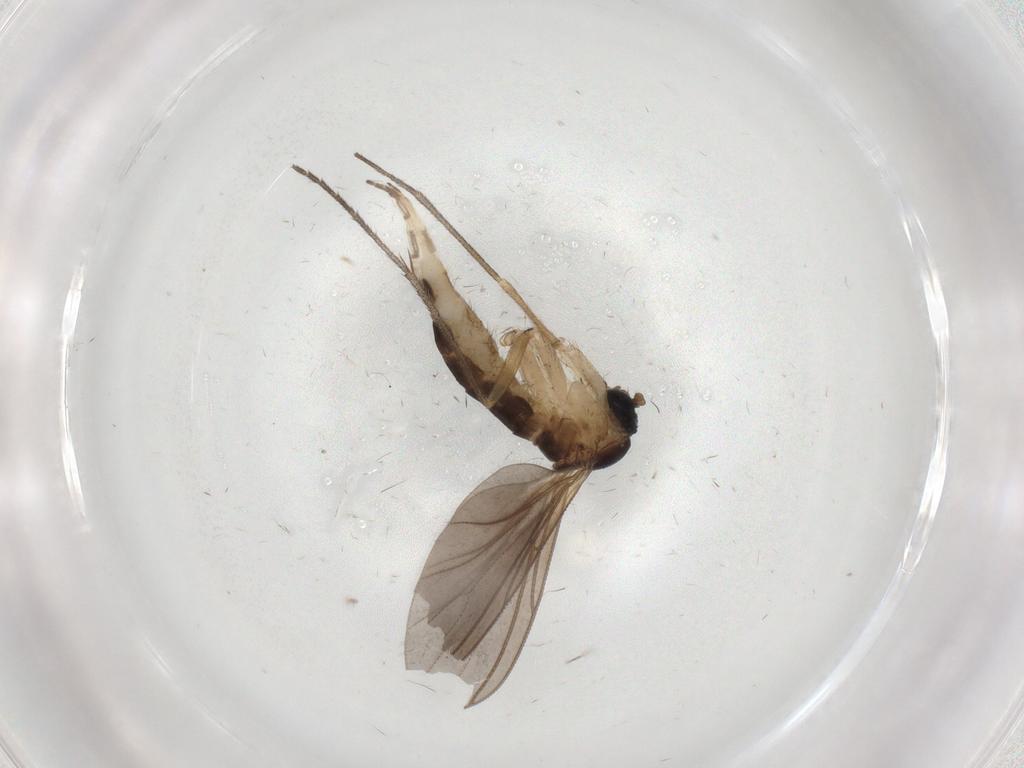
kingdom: Animalia
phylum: Arthropoda
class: Insecta
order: Diptera
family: Sciaridae
